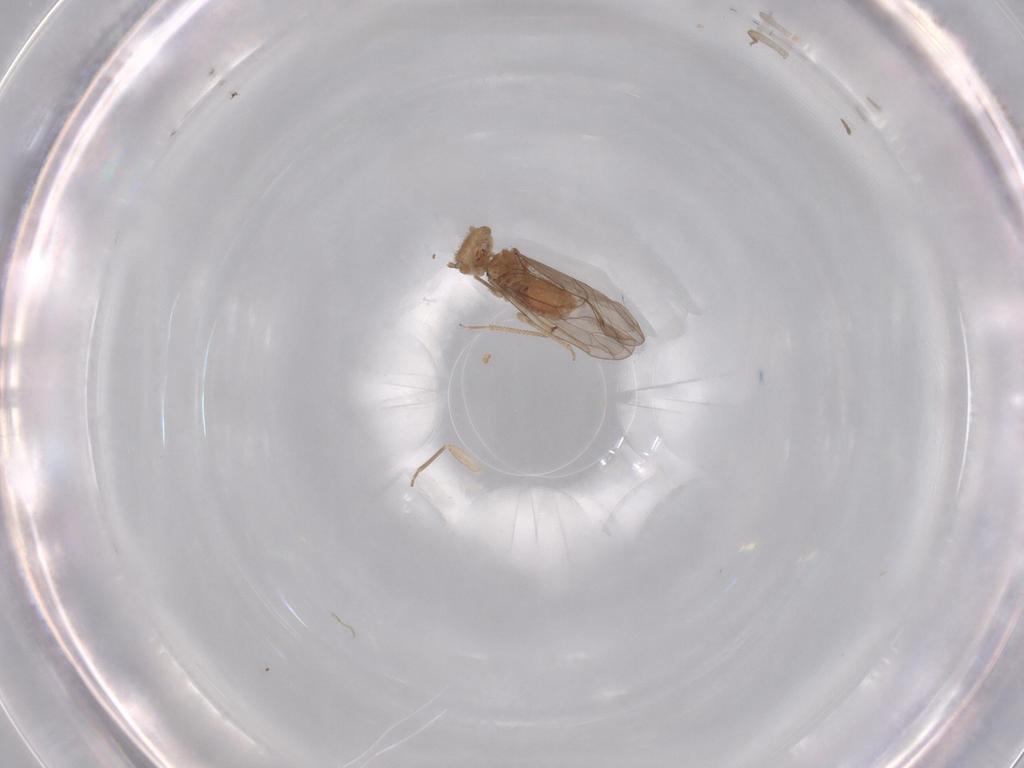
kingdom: Animalia
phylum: Arthropoda
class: Insecta
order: Psocodea
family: Ectopsocidae
